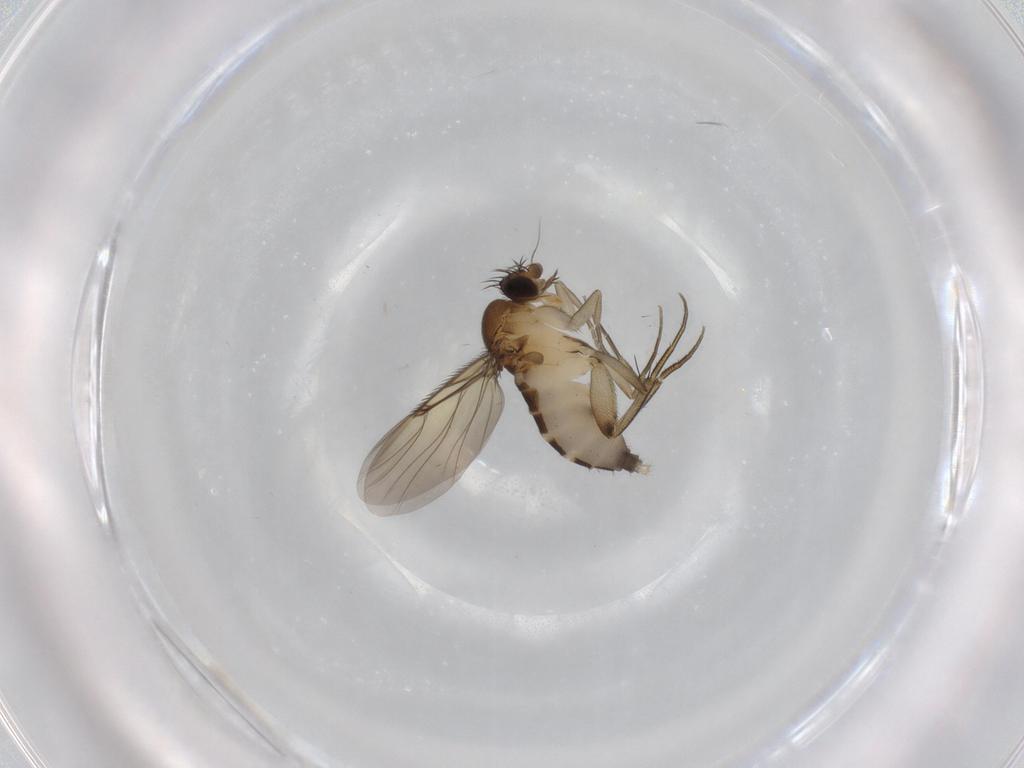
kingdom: Animalia
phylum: Arthropoda
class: Insecta
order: Diptera
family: Phoridae
